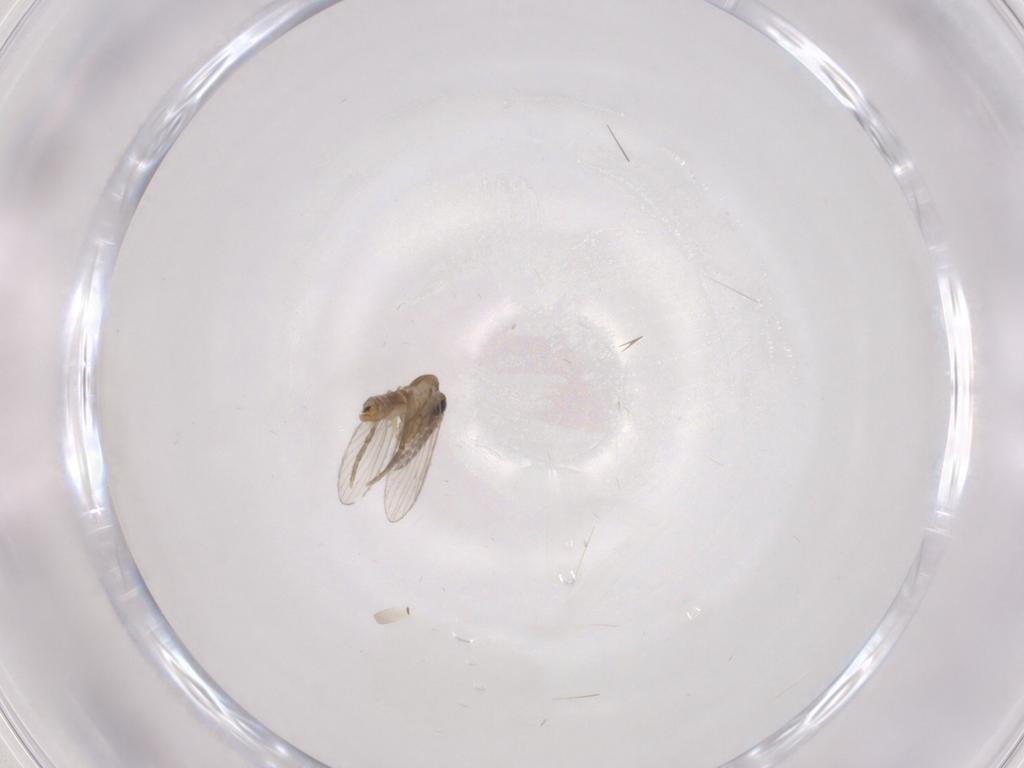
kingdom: Animalia
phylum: Arthropoda
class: Insecta
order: Diptera
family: Psychodidae
